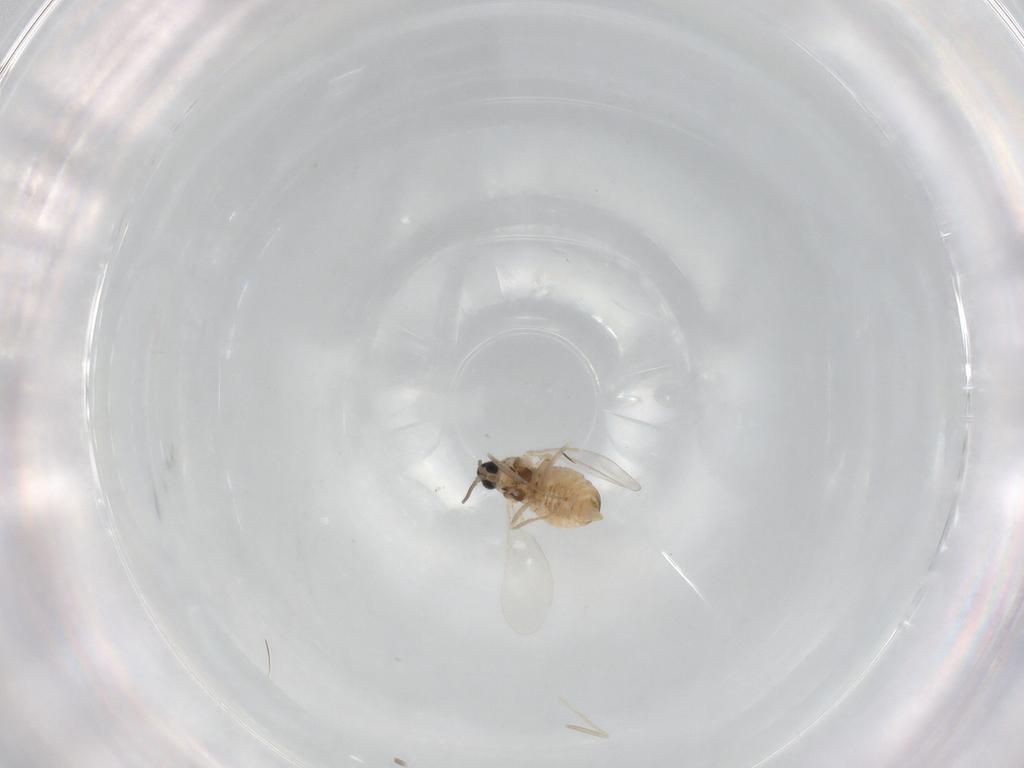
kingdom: Animalia
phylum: Arthropoda
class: Insecta
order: Diptera
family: Cecidomyiidae
